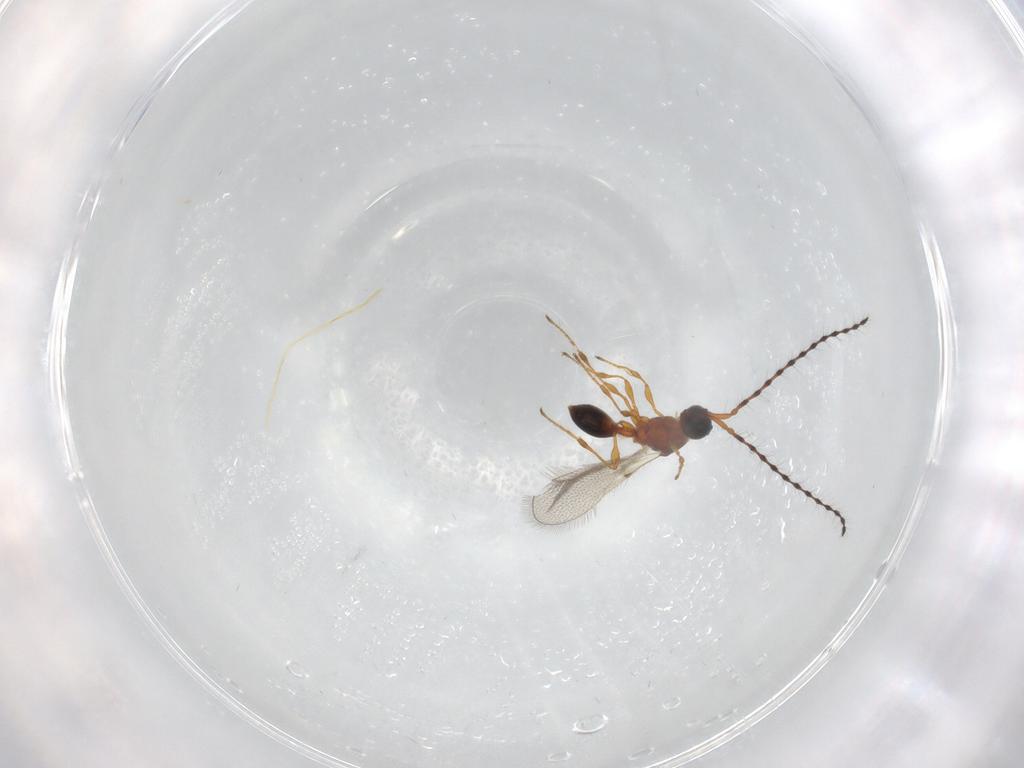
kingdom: Animalia
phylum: Arthropoda
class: Insecta
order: Hymenoptera
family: Diapriidae
